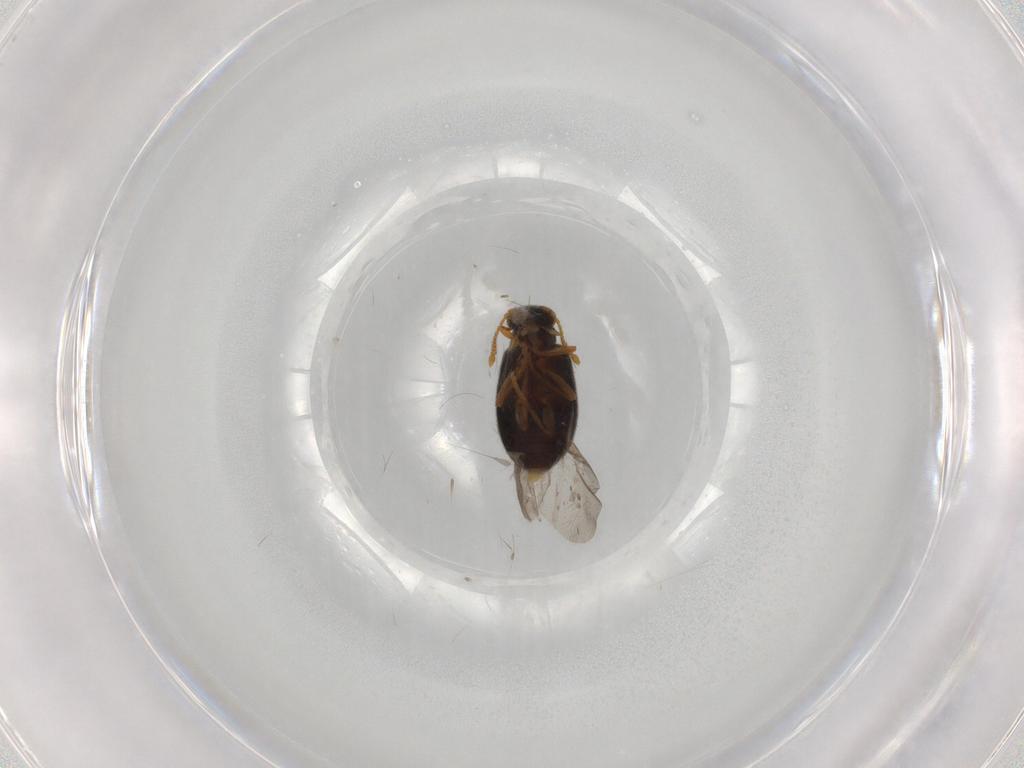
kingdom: Animalia
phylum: Arthropoda
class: Insecta
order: Coleoptera
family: Aderidae
